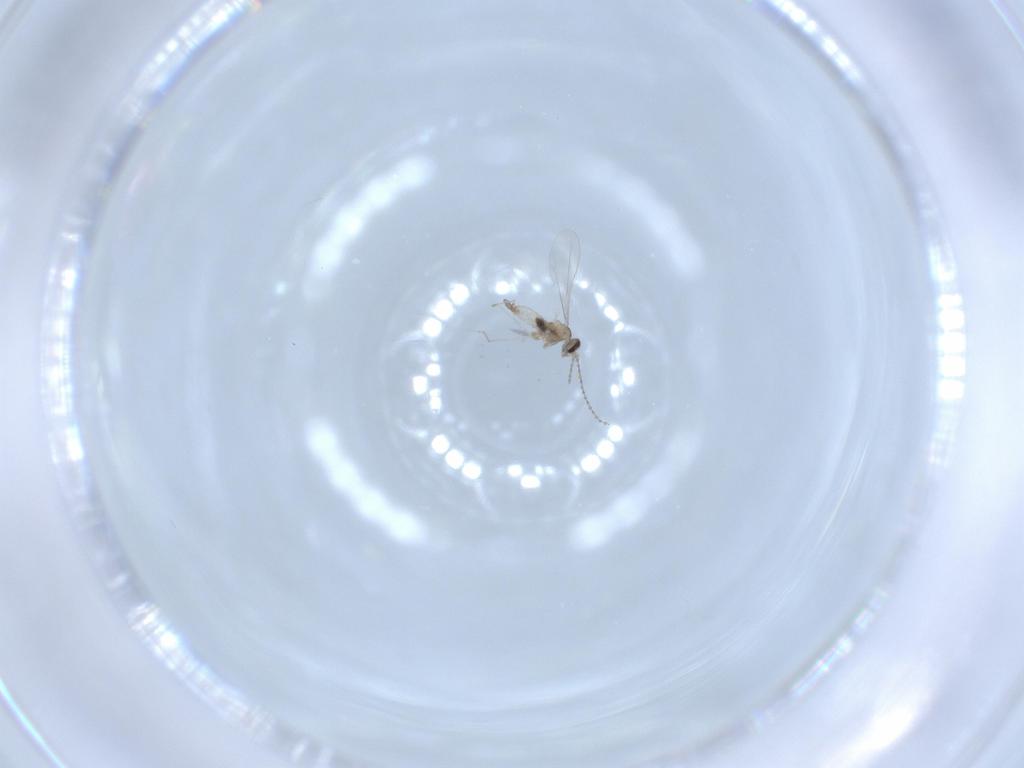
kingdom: Animalia
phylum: Arthropoda
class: Insecta
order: Diptera
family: Cecidomyiidae
